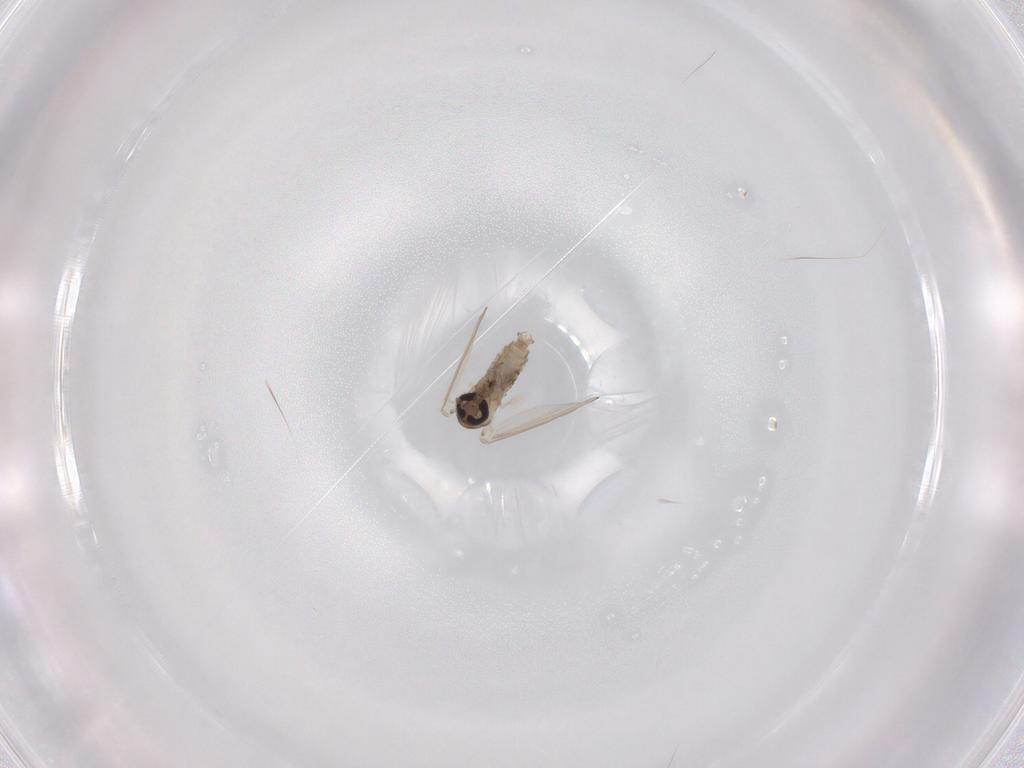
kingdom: Animalia
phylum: Arthropoda
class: Insecta
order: Diptera
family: Psychodidae
